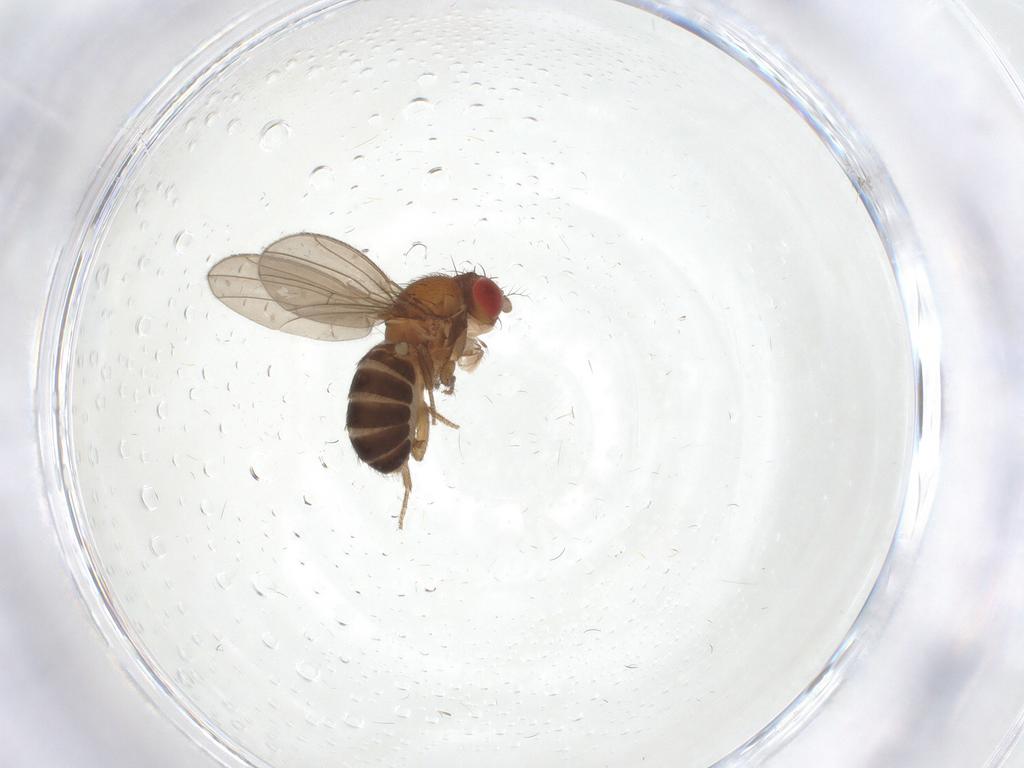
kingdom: Animalia
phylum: Arthropoda
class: Insecta
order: Diptera
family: Drosophilidae
